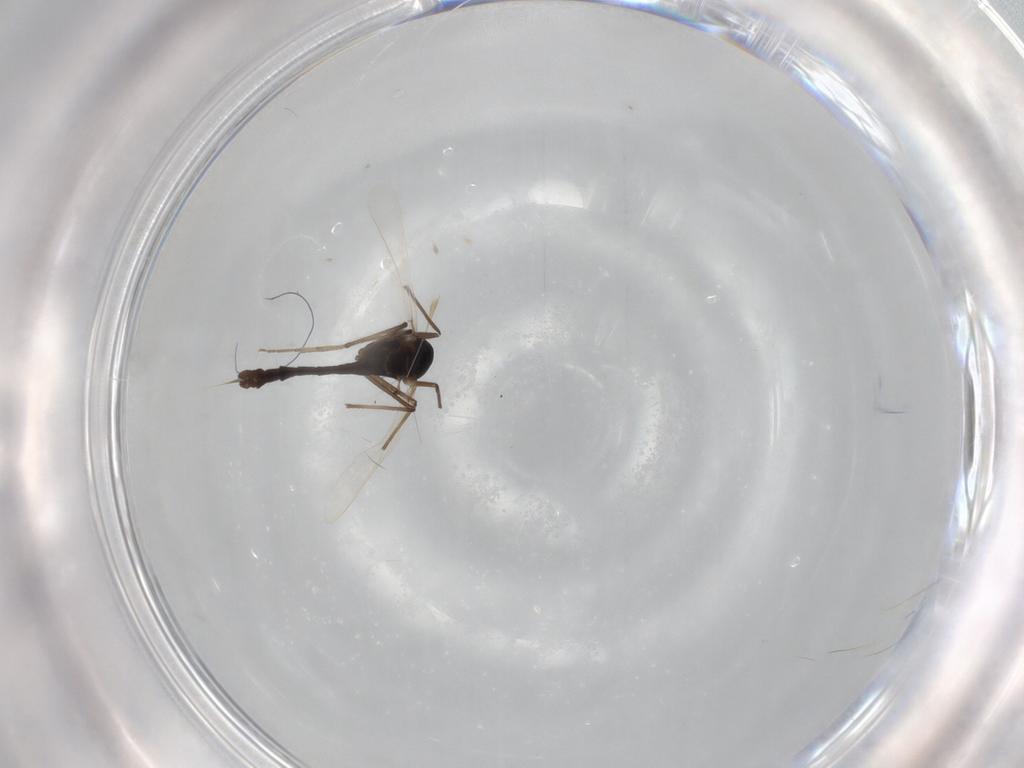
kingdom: Animalia
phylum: Arthropoda
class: Insecta
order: Diptera
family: Chironomidae
